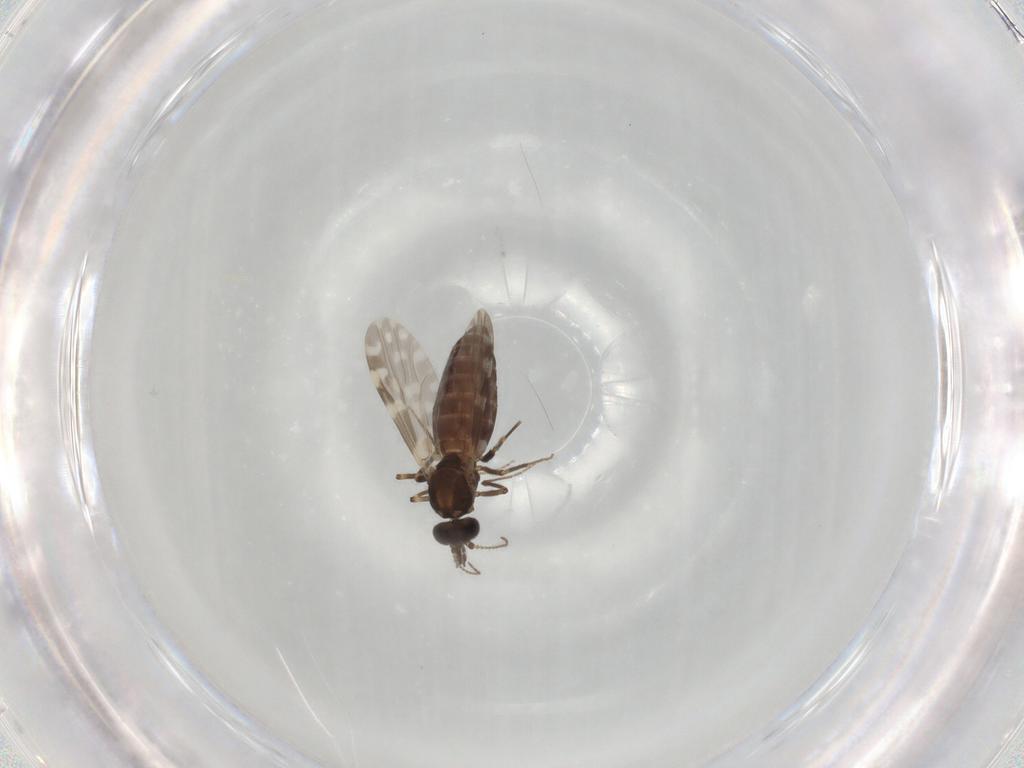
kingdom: Animalia
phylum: Arthropoda
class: Insecta
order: Diptera
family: Ceratopogonidae
